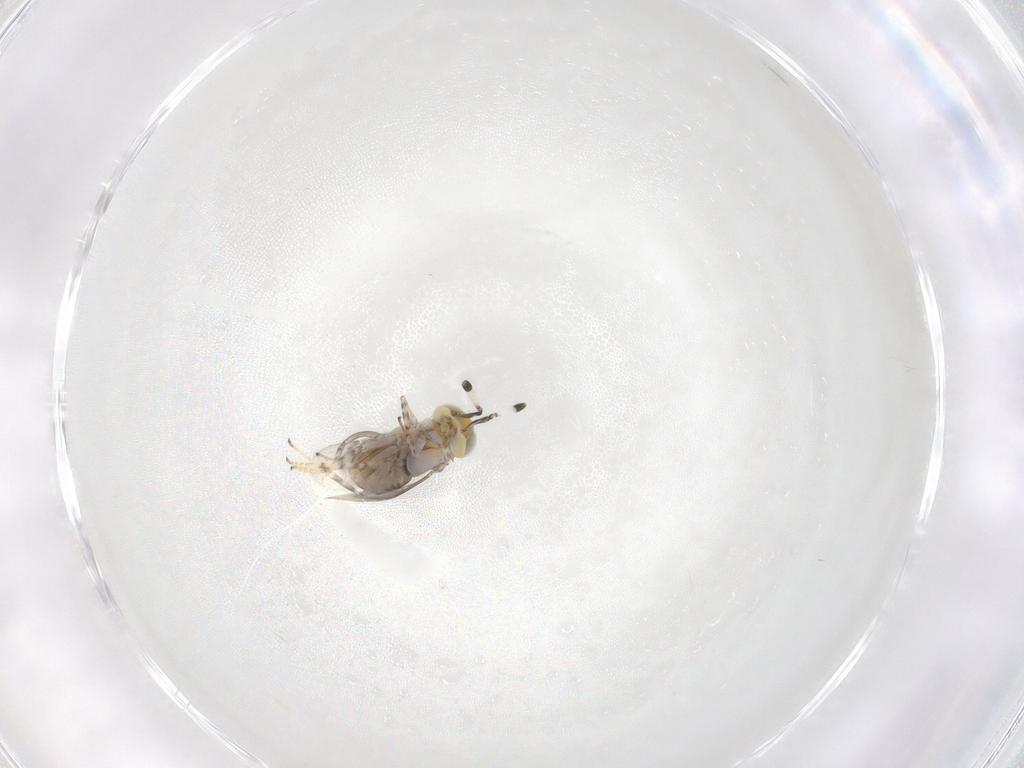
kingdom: Animalia
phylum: Arthropoda
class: Insecta
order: Hymenoptera
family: Encyrtidae
